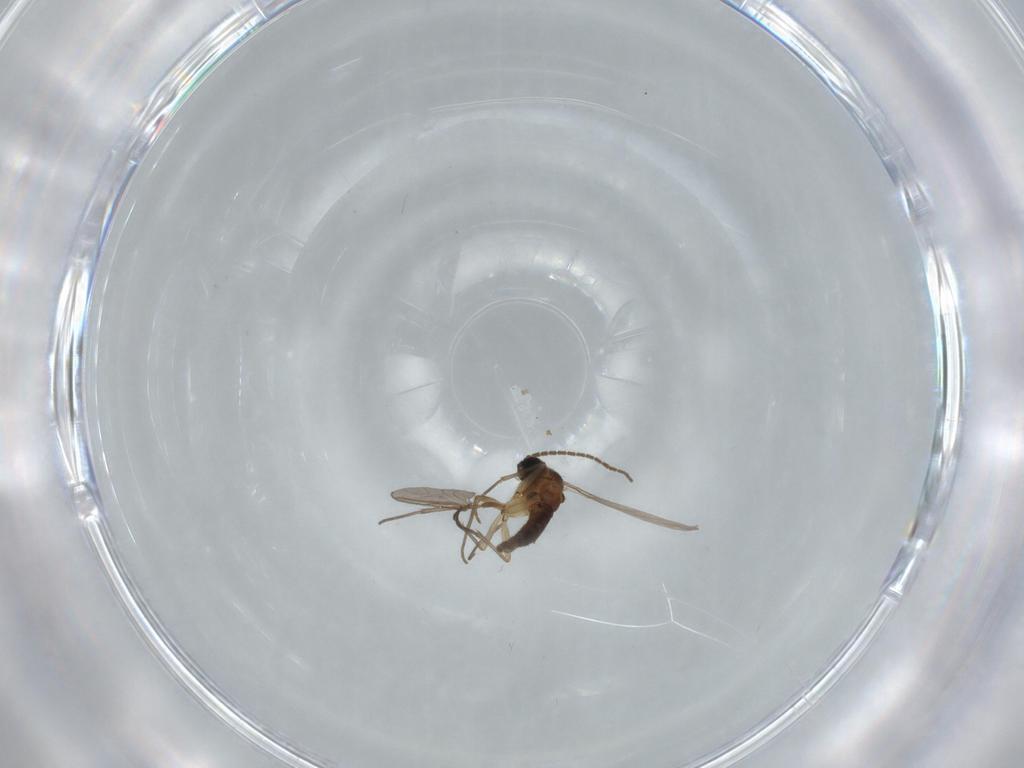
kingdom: Animalia
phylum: Arthropoda
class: Insecta
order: Diptera
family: Sciaridae
